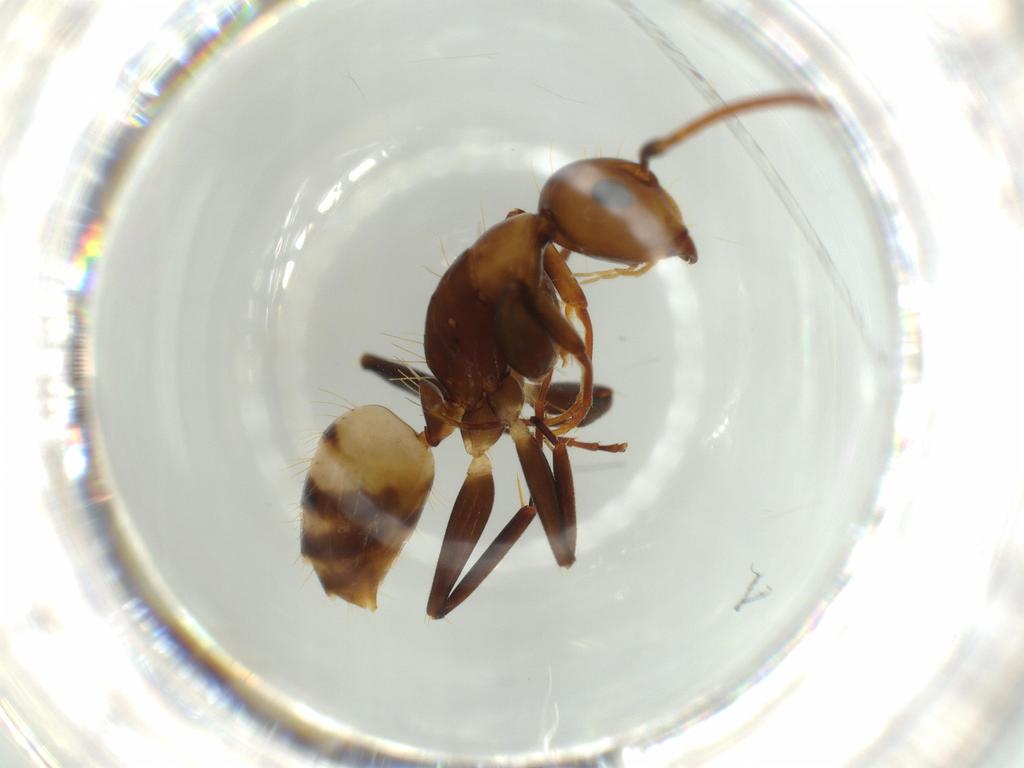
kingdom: Animalia
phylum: Arthropoda
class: Insecta
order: Hymenoptera
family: Formicidae
